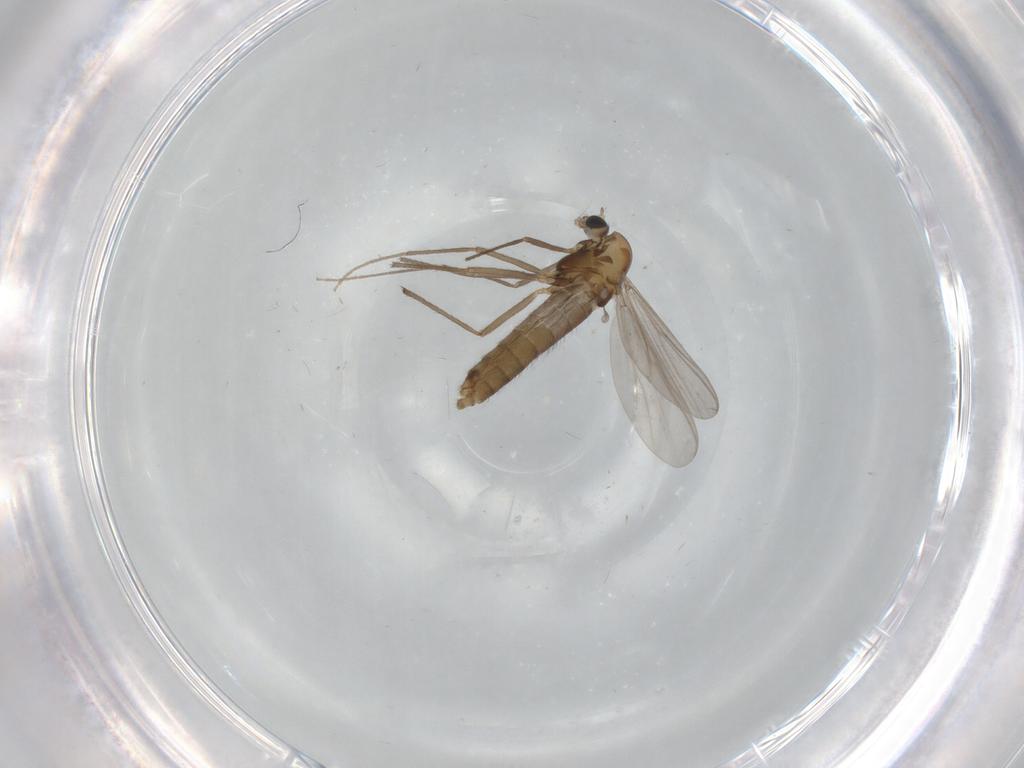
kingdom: Animalia
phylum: Arthropoda
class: Insecta
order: Diptera
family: Chironomidae
